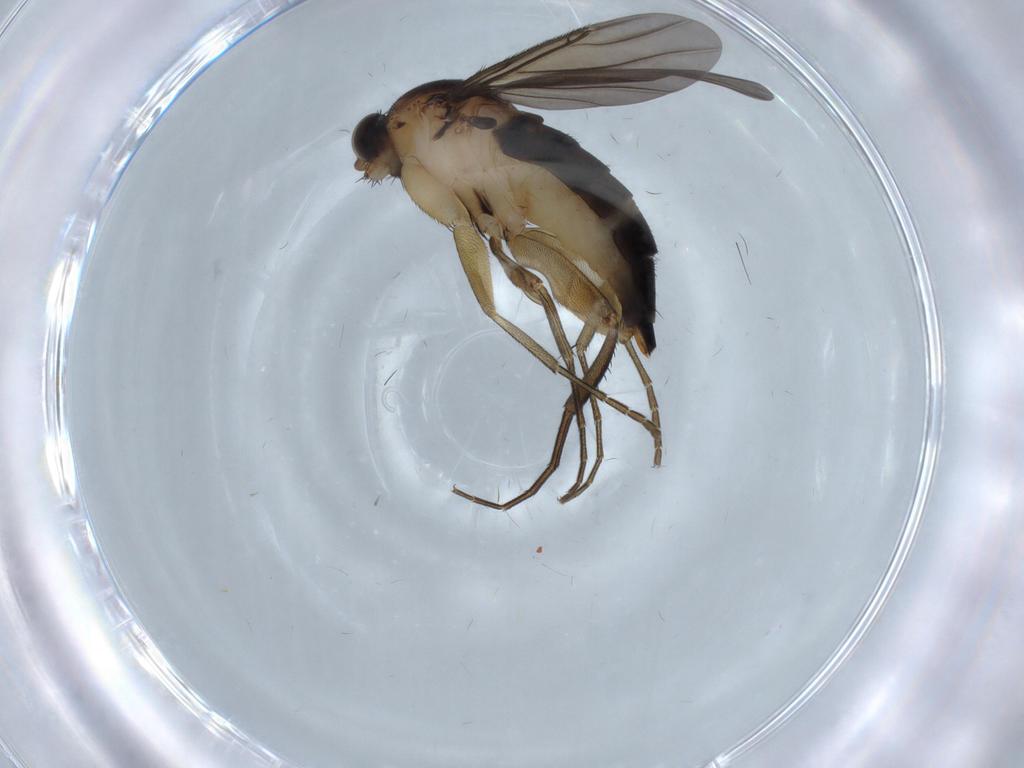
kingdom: Animalia
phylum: Arthropoda
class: Insecta
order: Diptera
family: Phoridae
